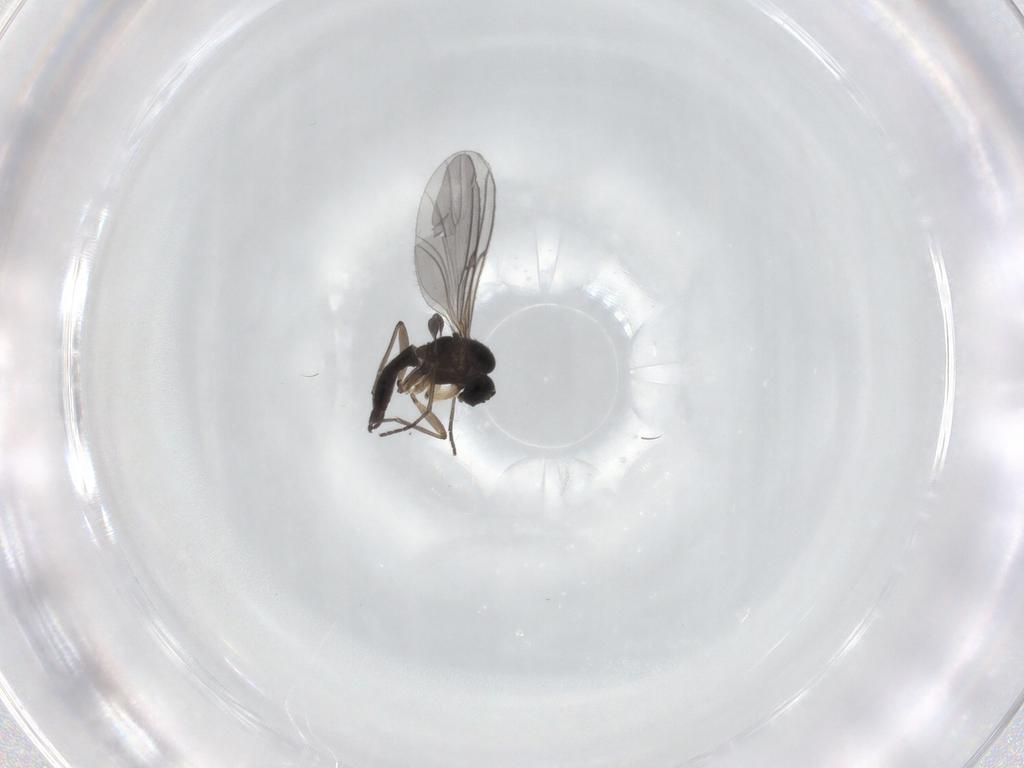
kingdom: Animalia
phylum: Arthropoda
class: Insecta
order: Diptera
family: Sciaridae
